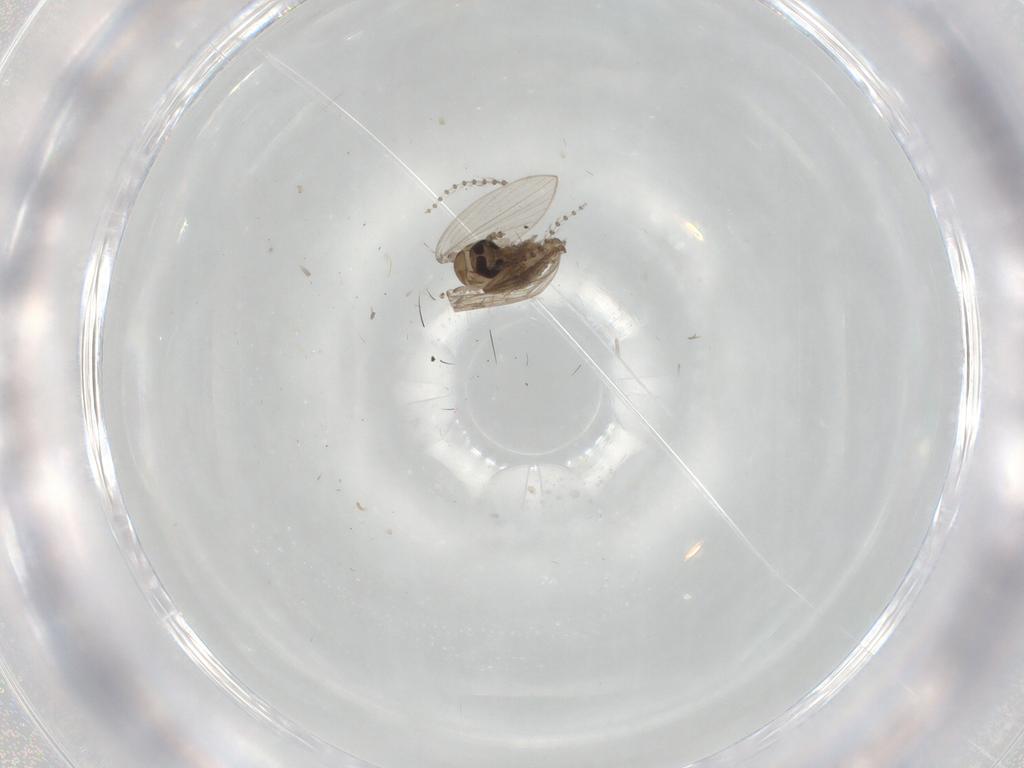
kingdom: Animalia
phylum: Arthropoda
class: Insecta
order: Diptera
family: Psychodidae
